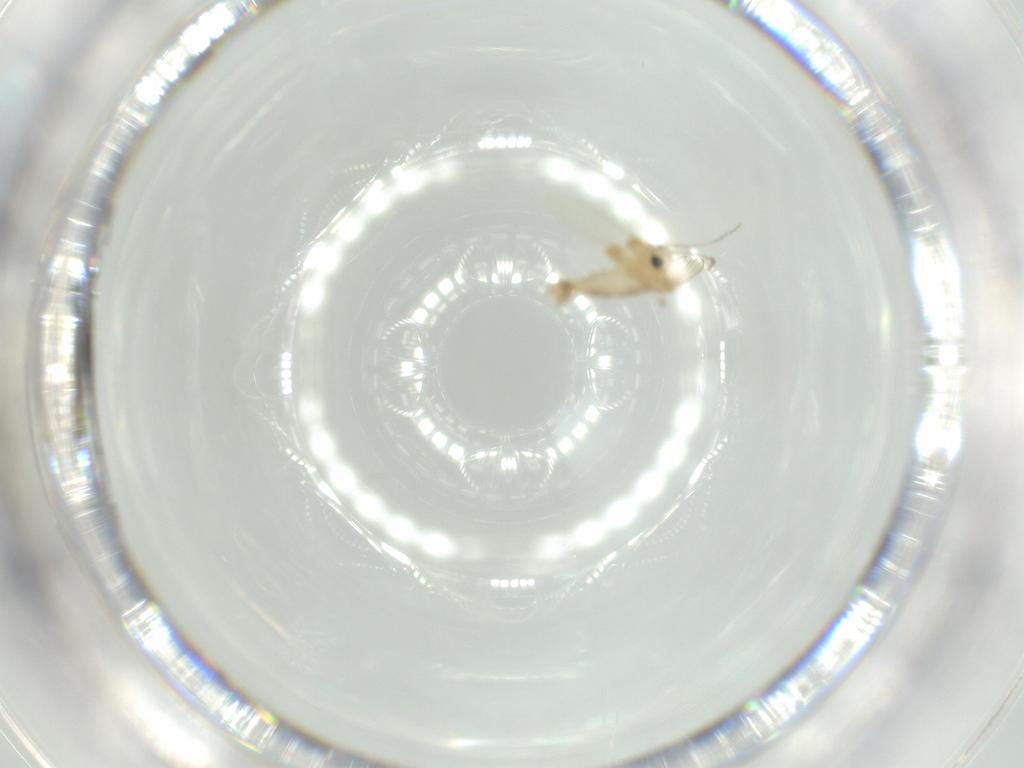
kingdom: Animalia
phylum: Arthropoda
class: Insecta
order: Diptera
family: Psychodidae
